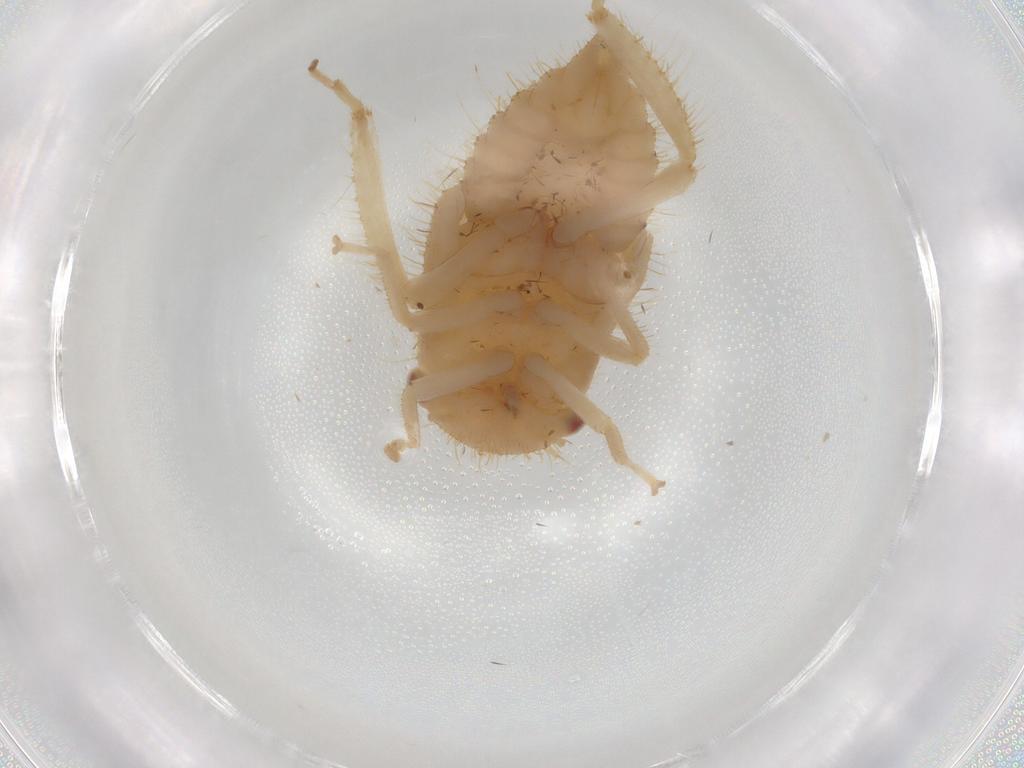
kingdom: Animalia
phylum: Arthropoda
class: Insecta
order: Hemiptera
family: Cicadellidae
